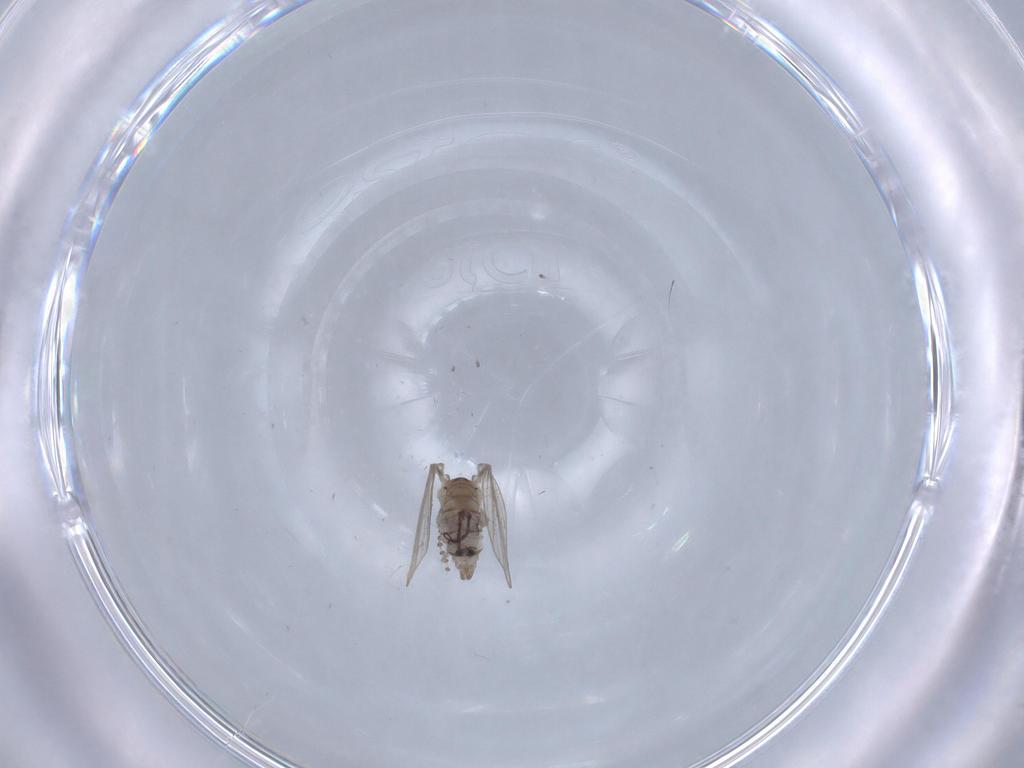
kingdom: Animalia
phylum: Arthropoda
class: Insecta
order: Diptera
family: Psychodidae
